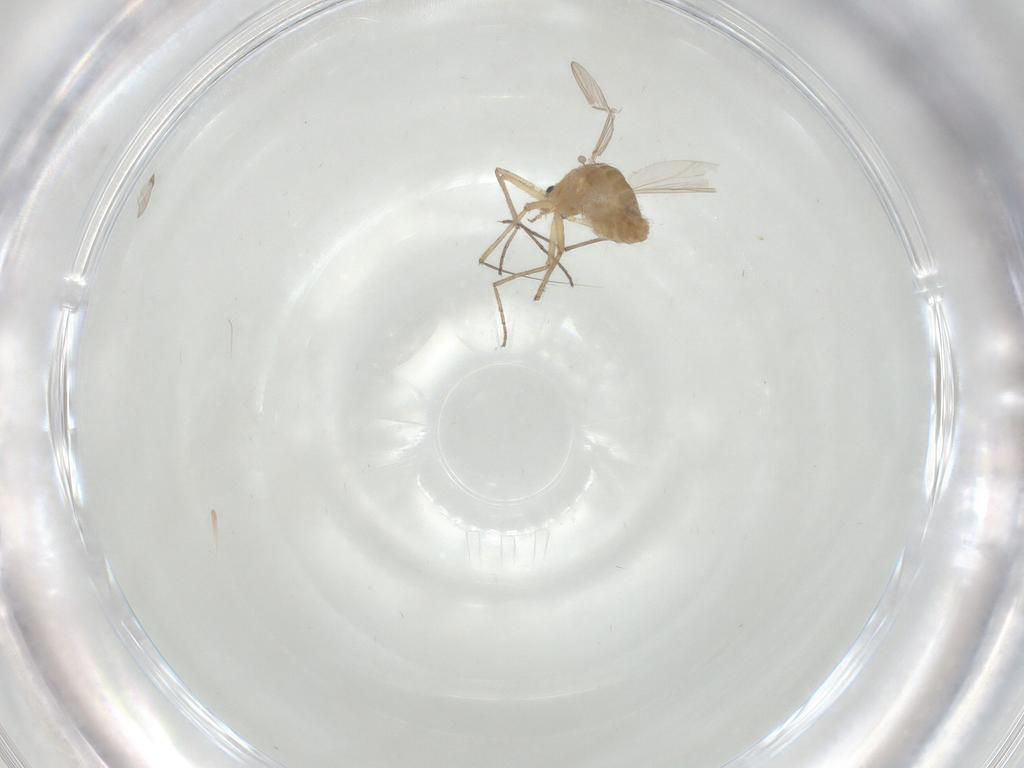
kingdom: Animalia
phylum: Arthropoda
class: Insecta
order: Diptera
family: Chironomidae
